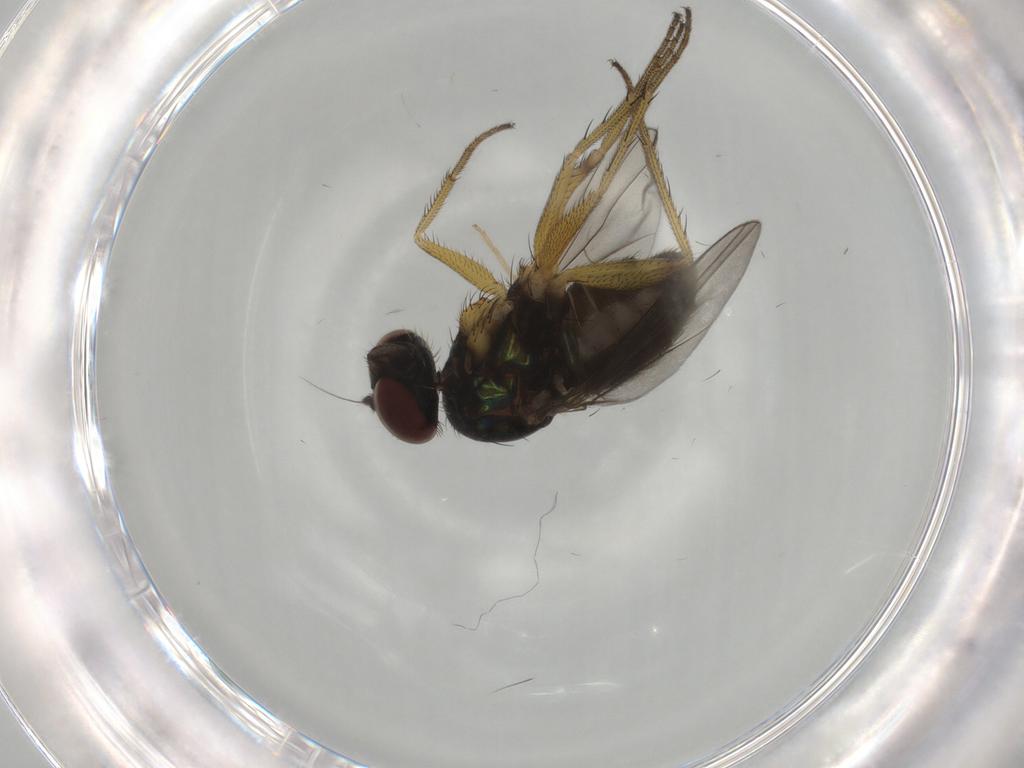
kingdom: Animalia
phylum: Arthropoda
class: Insecta
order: Diptera
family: Dolichopodidae
